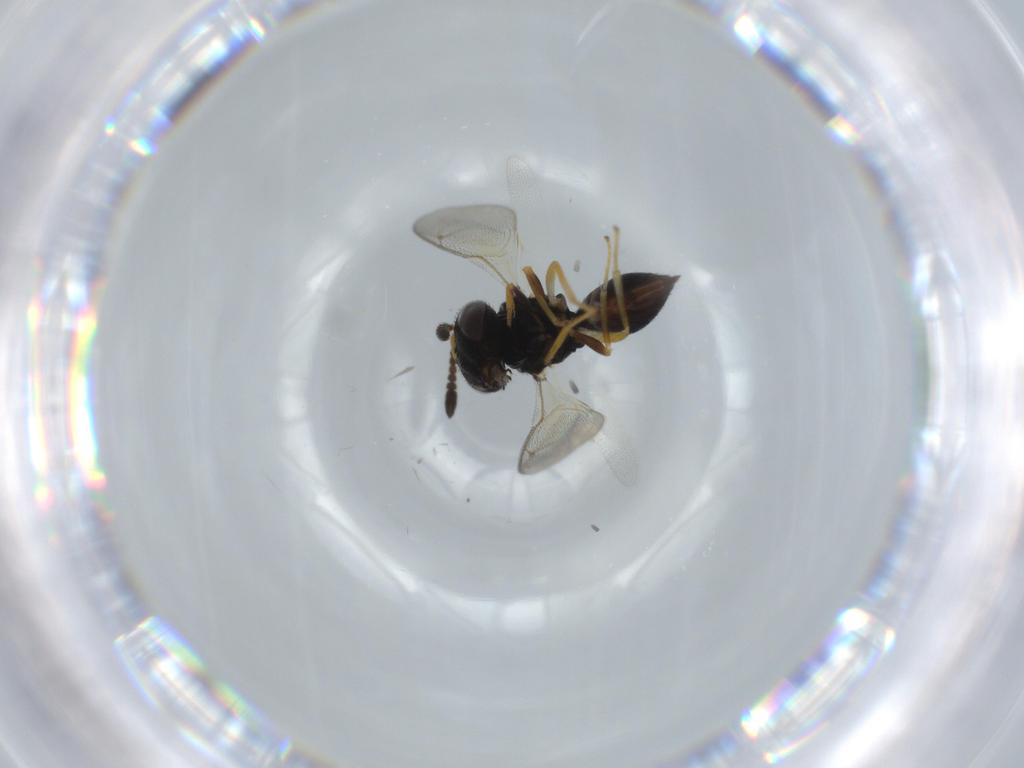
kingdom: Animalia
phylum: Arthropoda
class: Insecta
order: Hymenoptera
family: Pteromalidae
